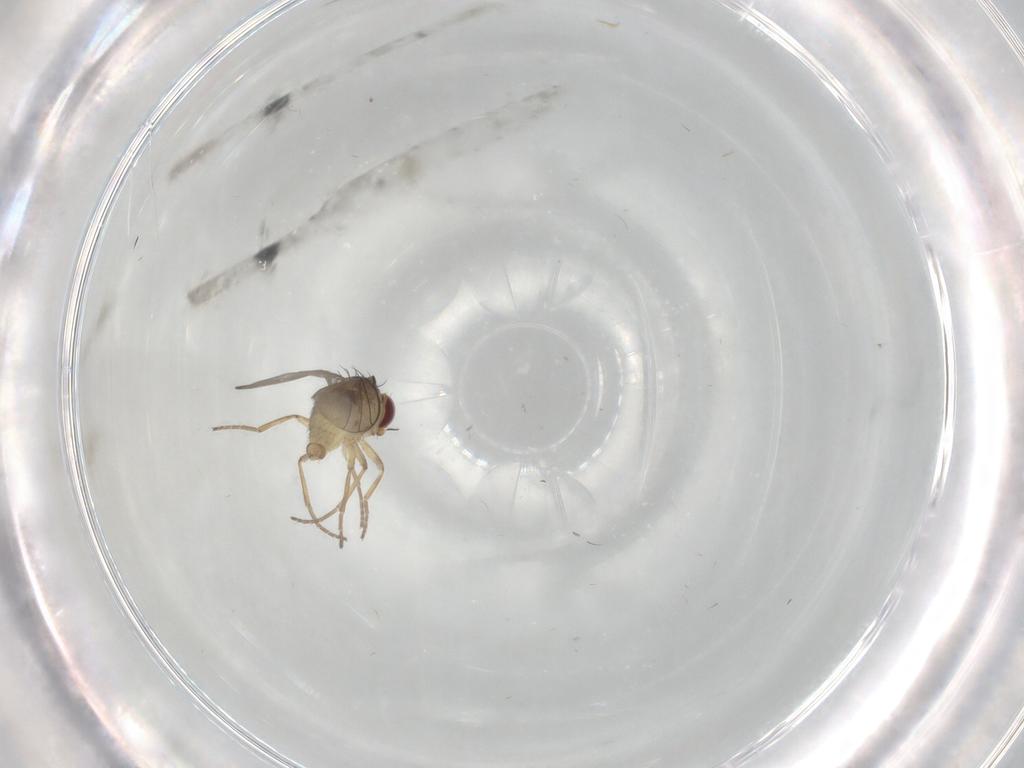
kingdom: Animalia
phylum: Arthropoda
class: Insecta
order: Diptera
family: Agromyzidae
